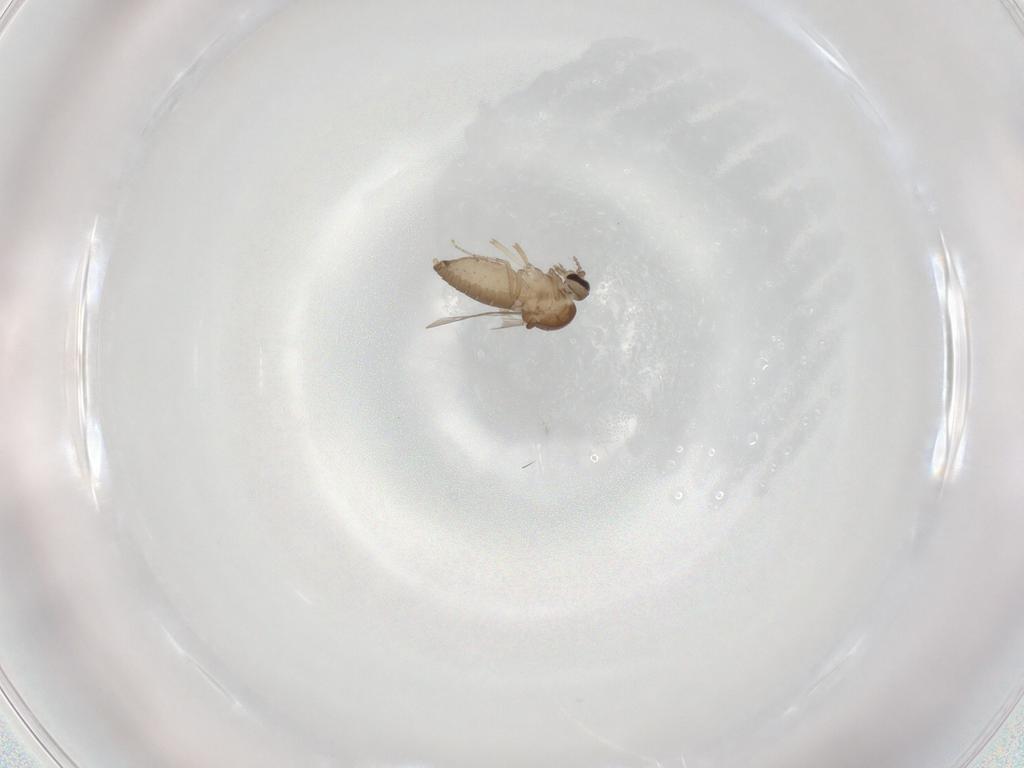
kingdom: Animalia
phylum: Arthropoda
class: Insecta
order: Diptera
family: Ceratopogonidae
